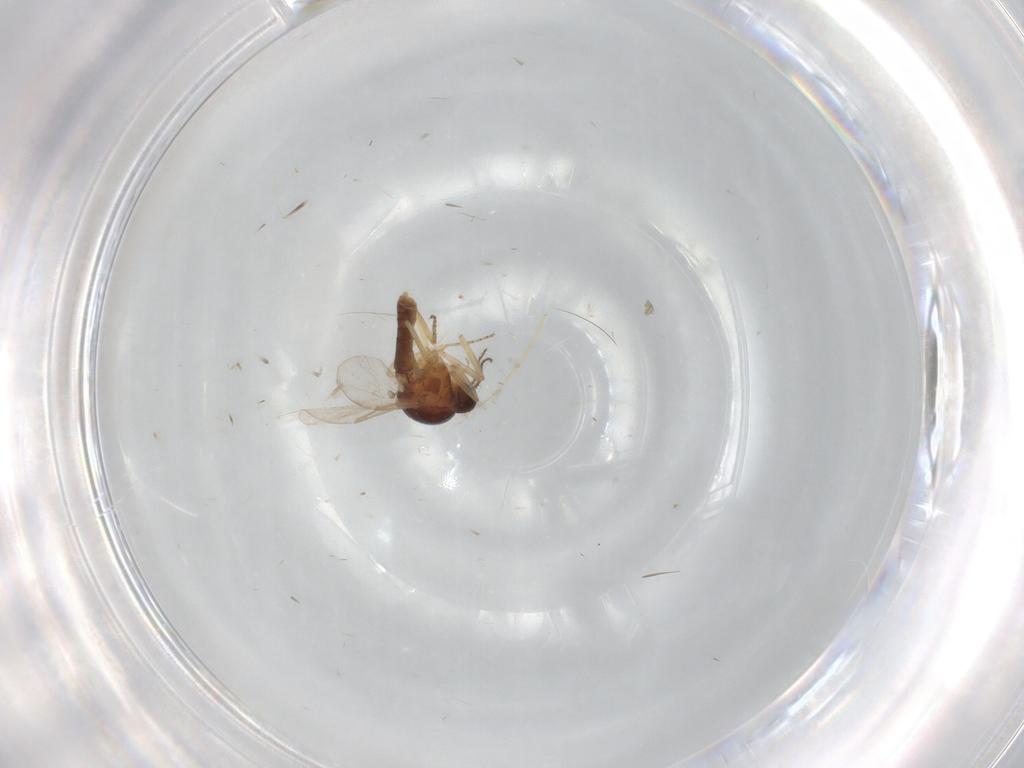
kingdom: Animalia
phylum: Arthropoda
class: Insecta
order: Diptera
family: Ceratopogonidae
